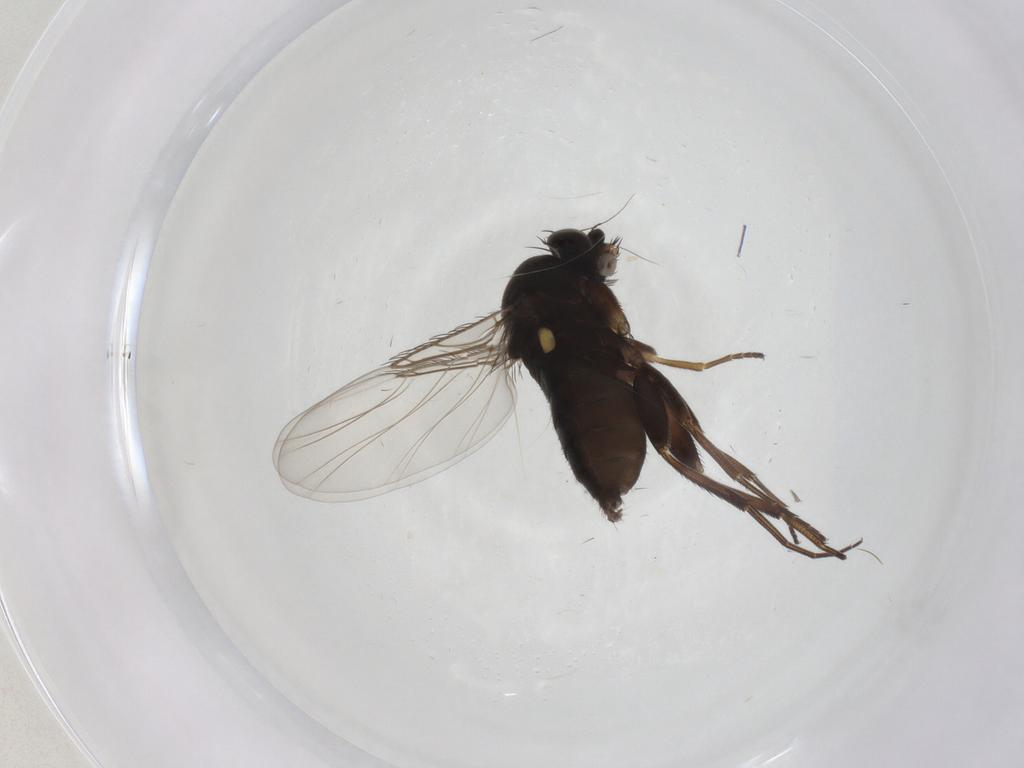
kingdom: Animalia
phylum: Arthropoda
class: Insecta
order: Diptera
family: Phoridae
